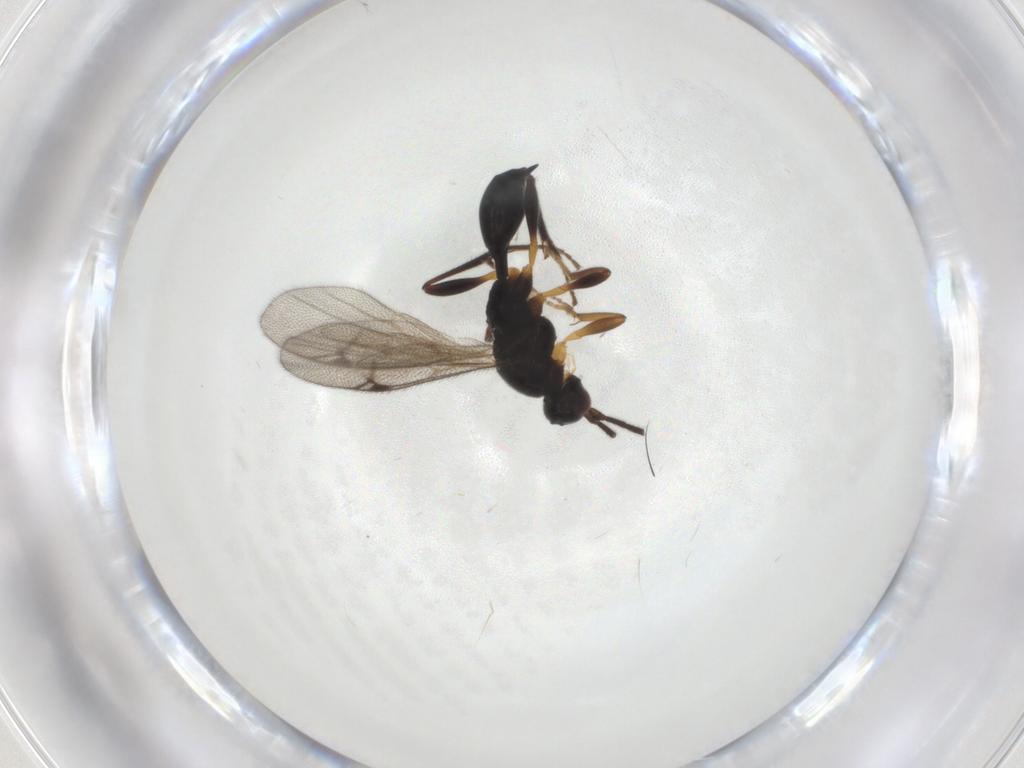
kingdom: Animalia
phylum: Arthropoda
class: Insecta
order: Hymenoptera
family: Proctotrupidae
